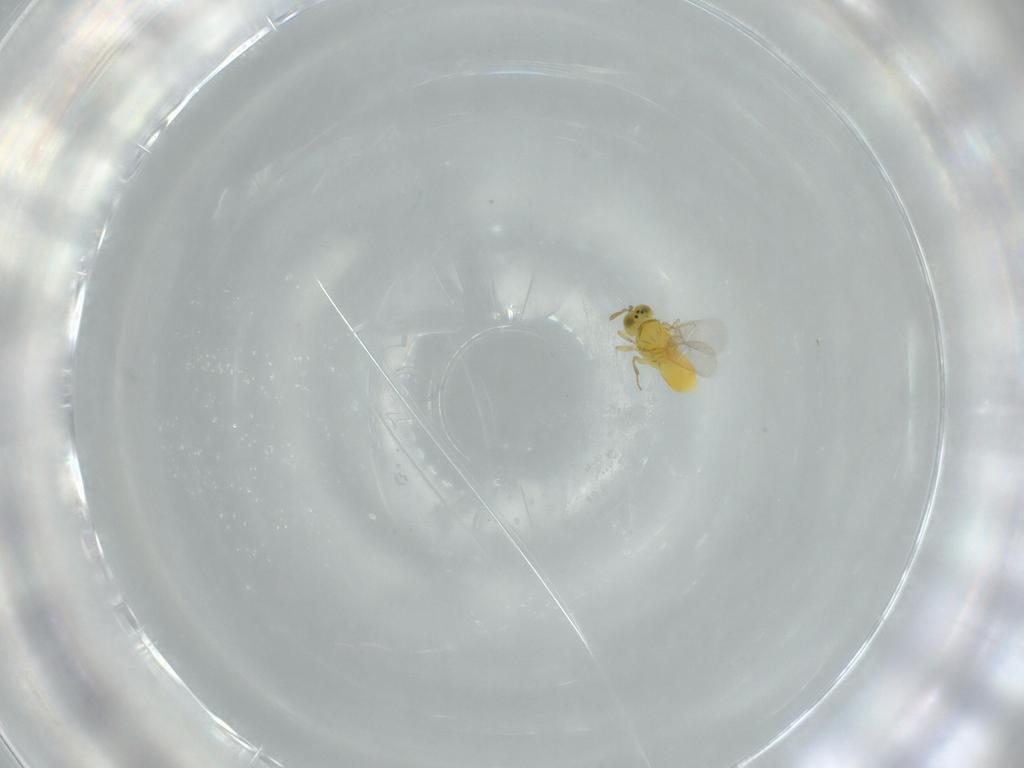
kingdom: Animalia
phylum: Arthropoda
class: Insecta
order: Hymenoptera
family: Aphelinidae
